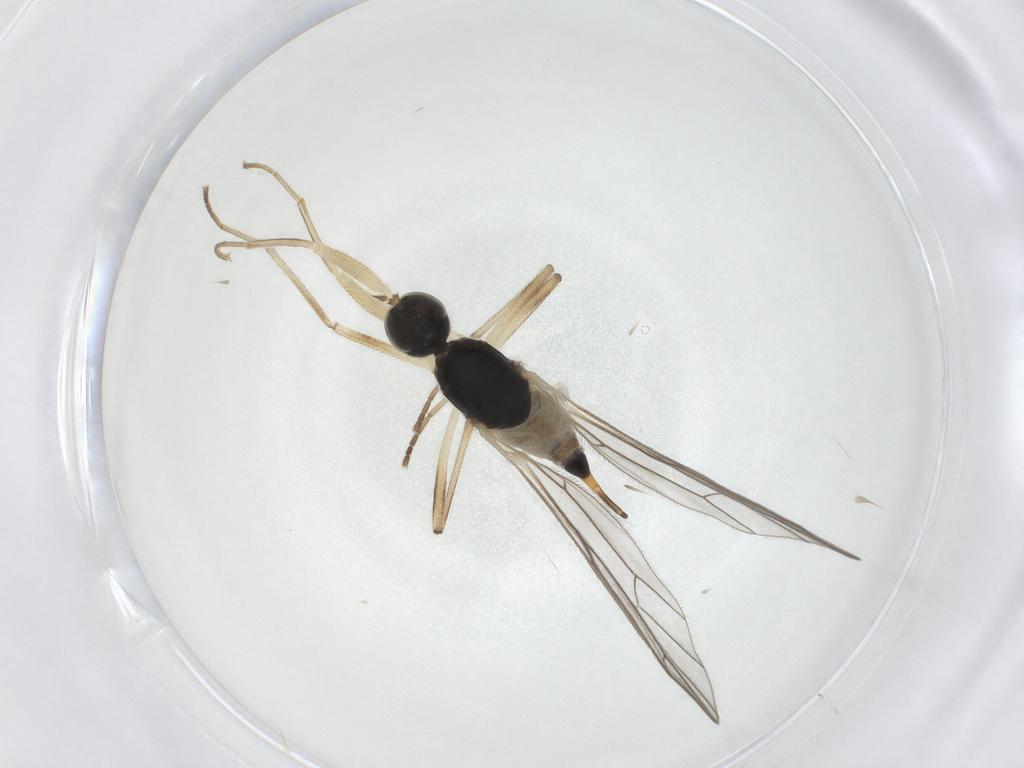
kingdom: Animalia
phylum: Arthropoda
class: Insecta
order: Diptera
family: Empididae
